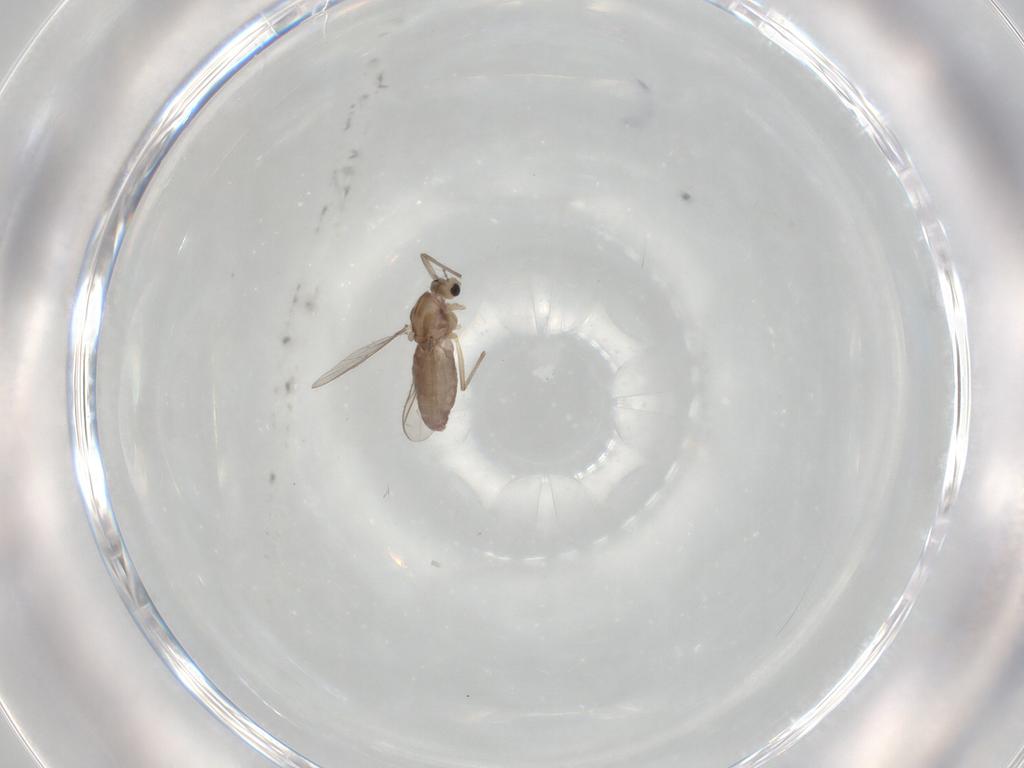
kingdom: Animalia
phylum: Arthropoda
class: Insecta
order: Diptera
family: Chironomidae
